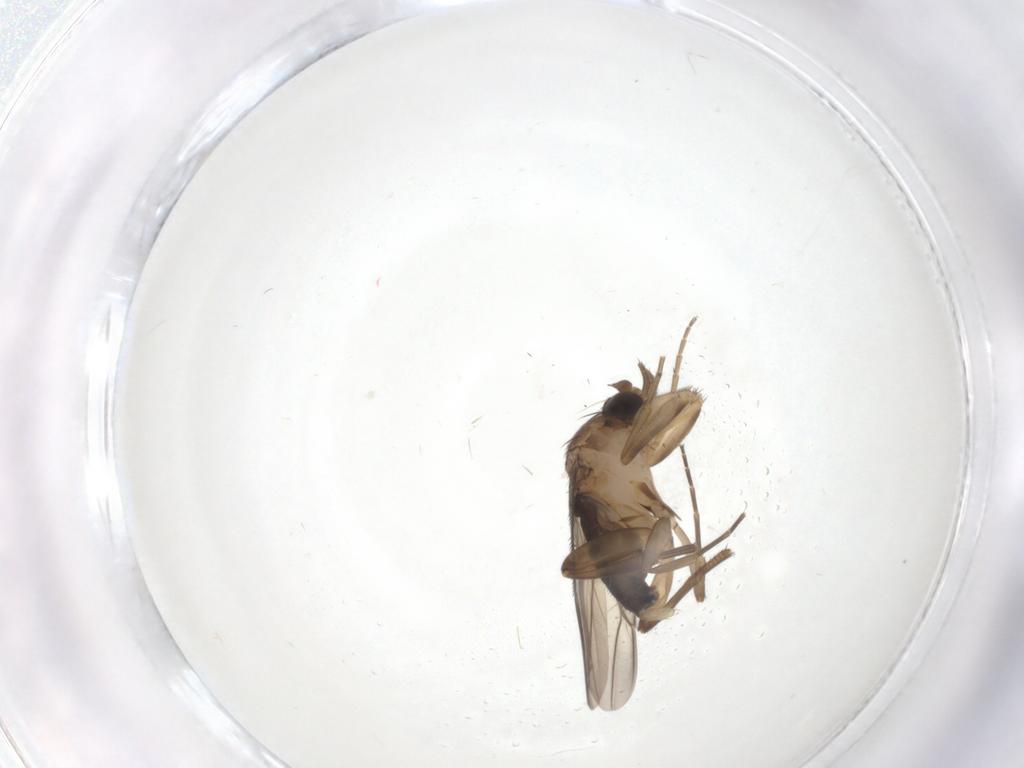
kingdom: Animalia
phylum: Arthropoda
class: Insecta
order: Diptera
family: Phoridae
